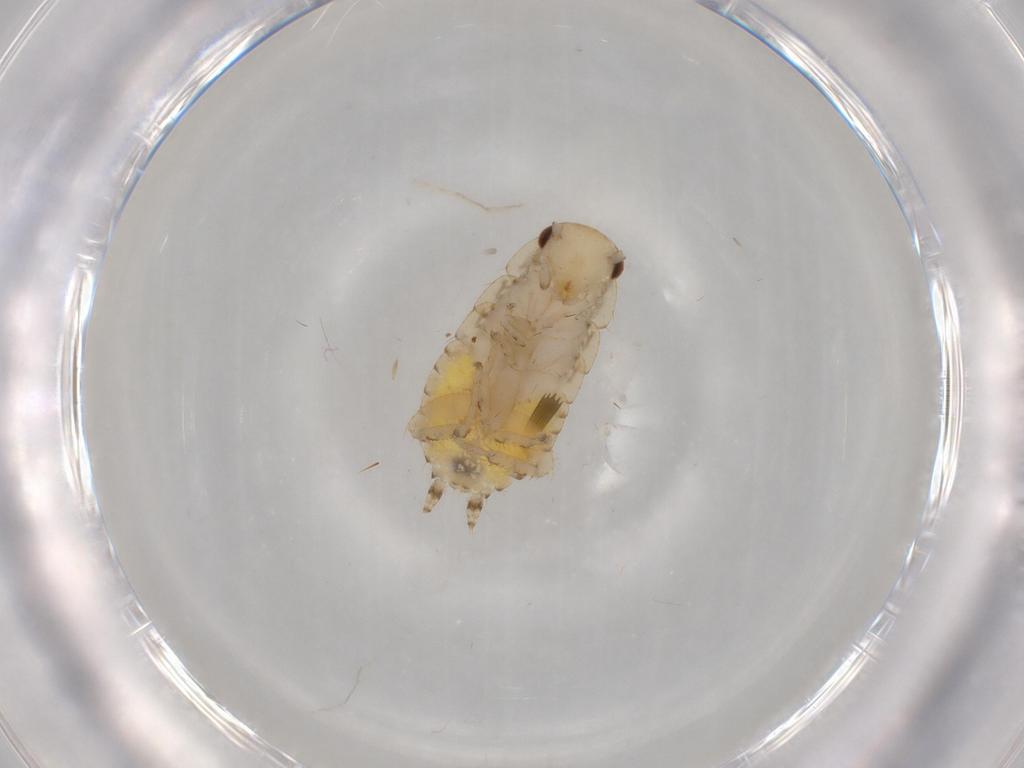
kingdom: Animalia
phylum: Arthropoda
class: Insecta
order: Blattodea
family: Ectobiidae
